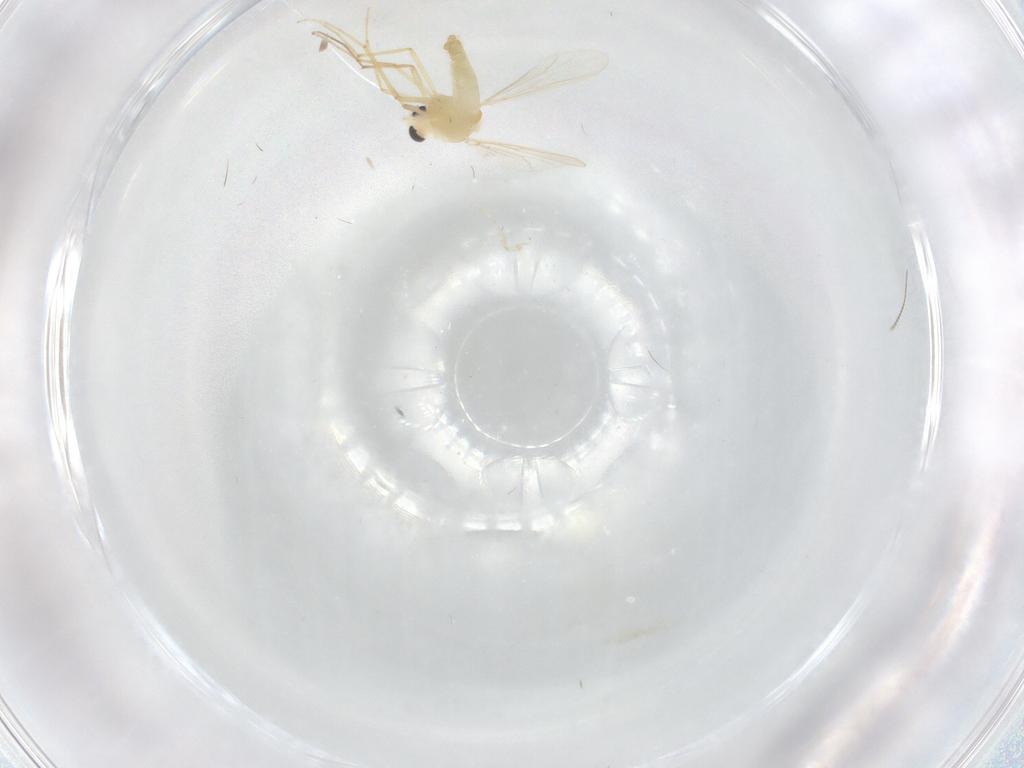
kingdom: Animalia
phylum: Arthropoda
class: Insecta
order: Diptera
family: Chironomidae
